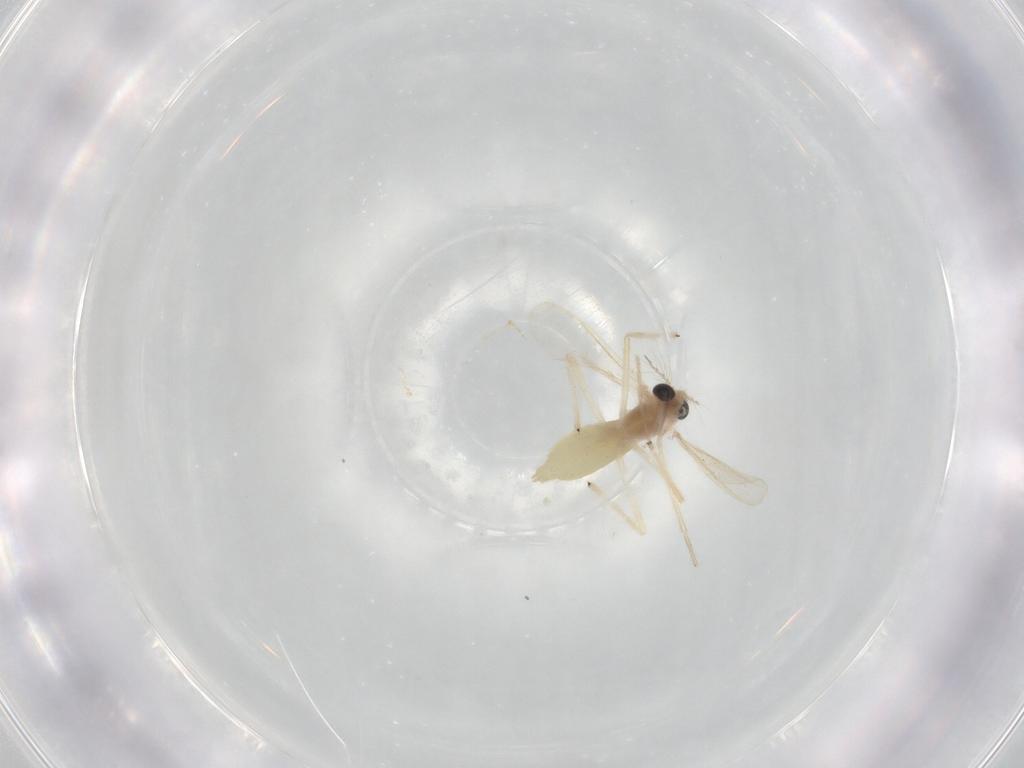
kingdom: Animalia
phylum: Arthropoda
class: Insecta
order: Diptera
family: Chironomidae
